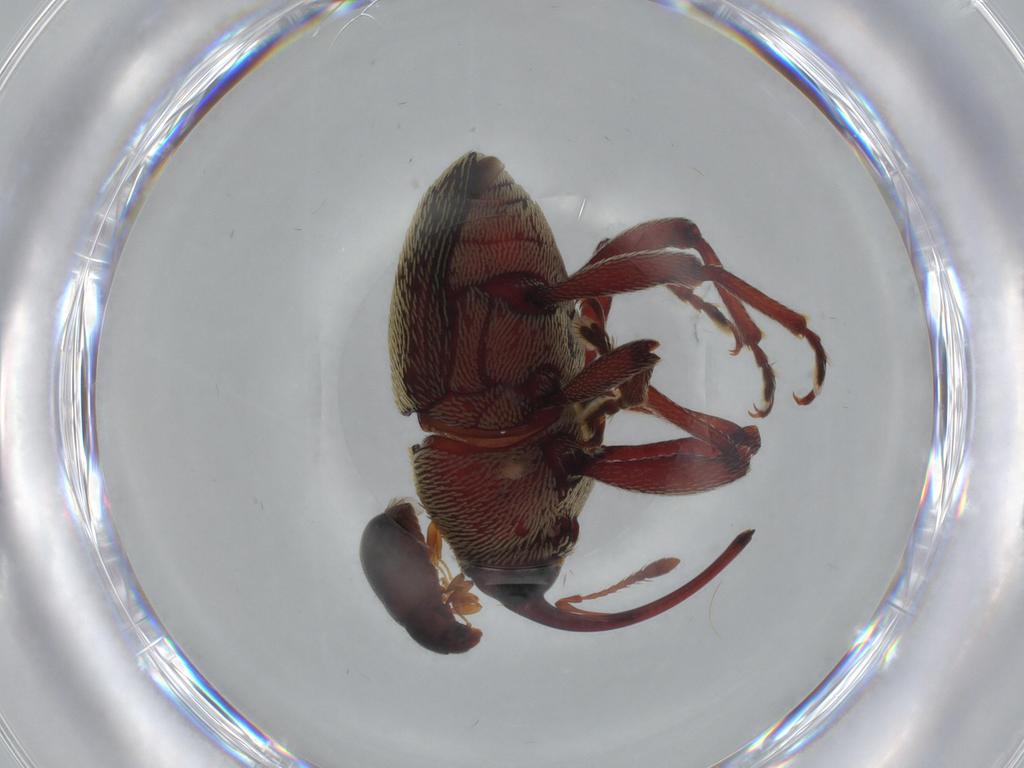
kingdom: Animalia
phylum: Arthropoda
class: Insecta
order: Coleoptera
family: Sphindidae
